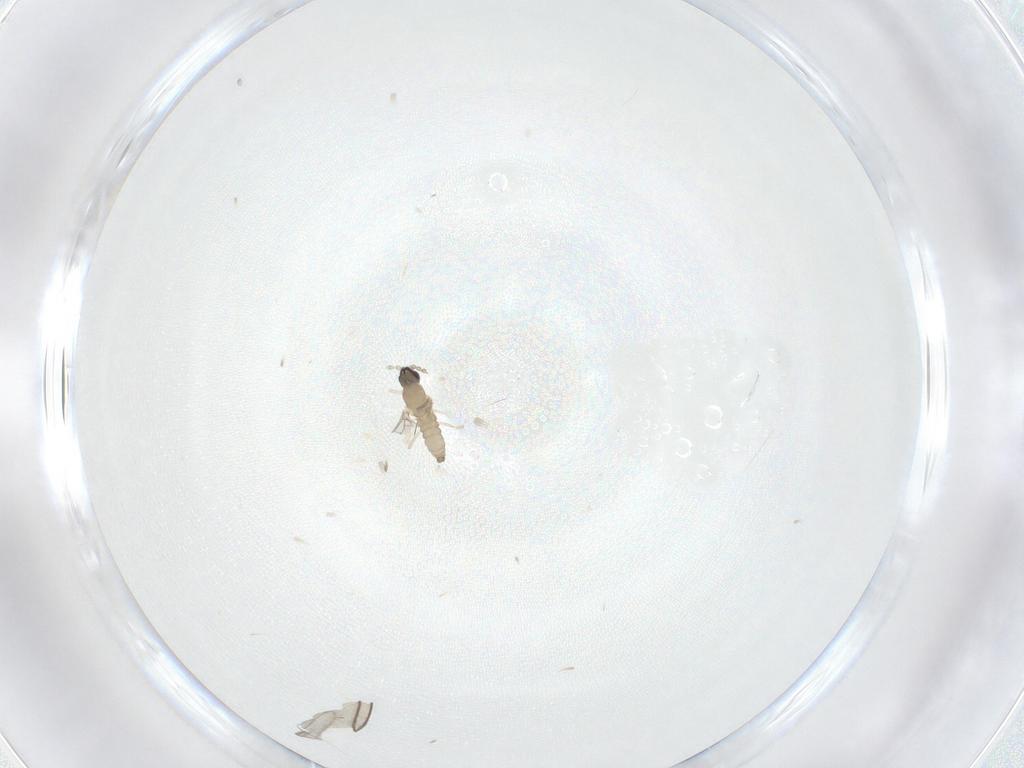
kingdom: Animalia
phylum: Arthropoda
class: Insecta
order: Diptera
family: Cecidomyiidae
